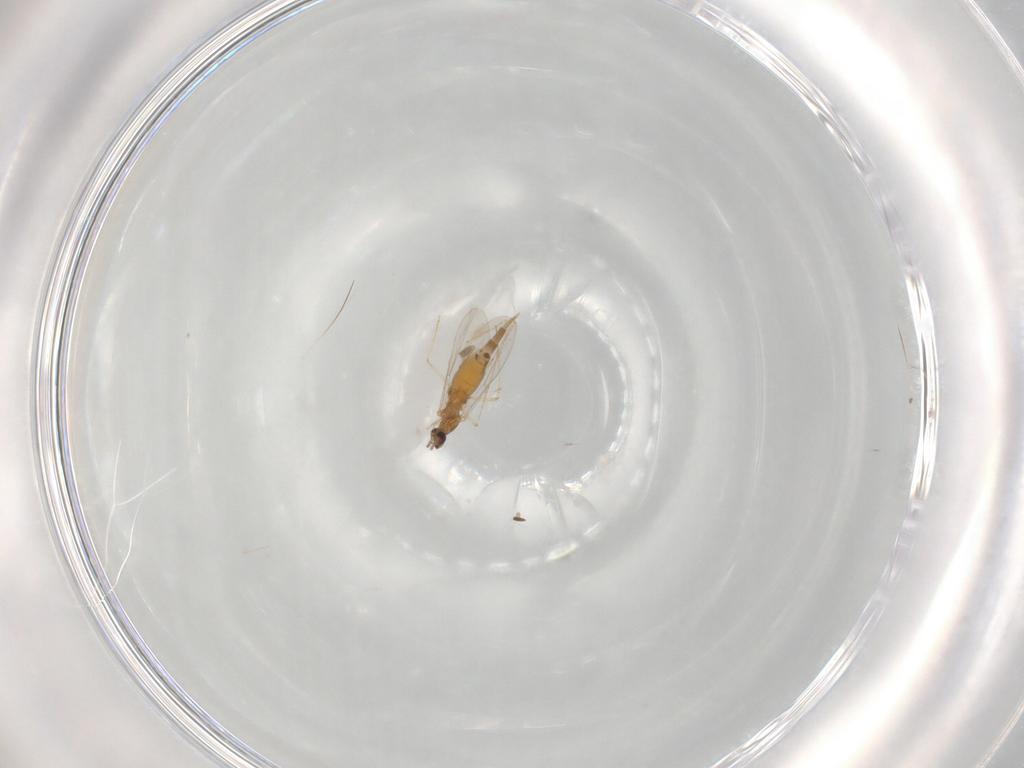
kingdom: Animalia
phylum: Arthropoda
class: Insecta
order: Diptera
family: Cecidomyiidae
